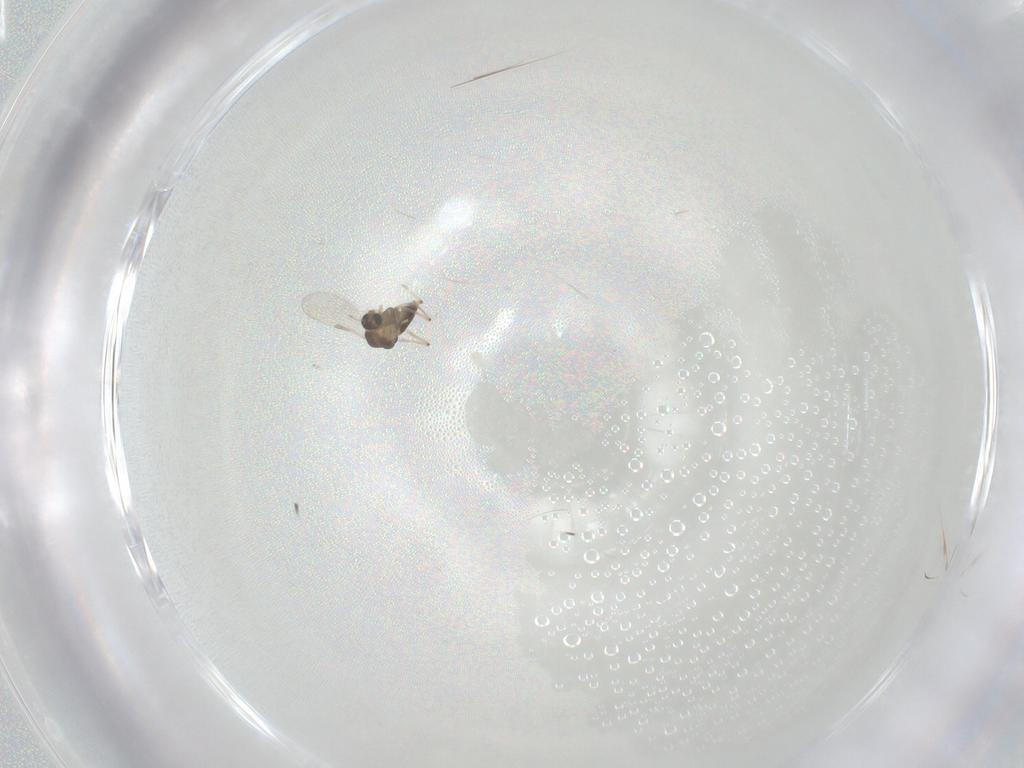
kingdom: Animalia
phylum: Arthropoda
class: Insecta
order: Diptera
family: Chironomidae
